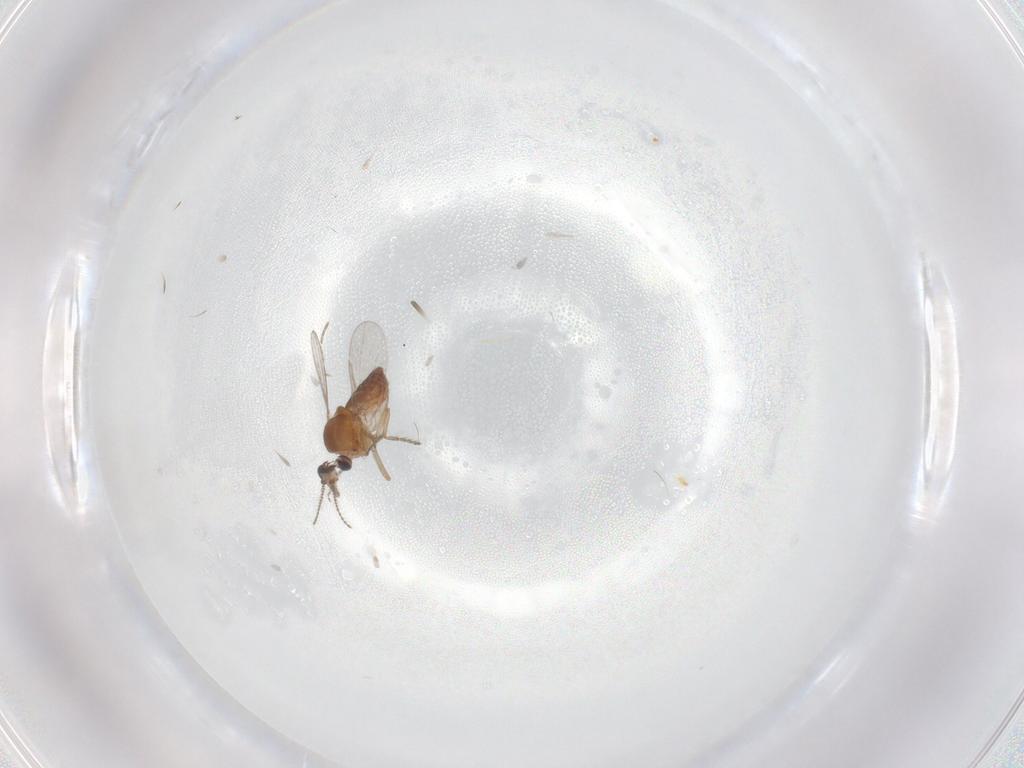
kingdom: Animalia
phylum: Arthropoda
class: Insecta
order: Diptera
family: Ceratopogonidae
